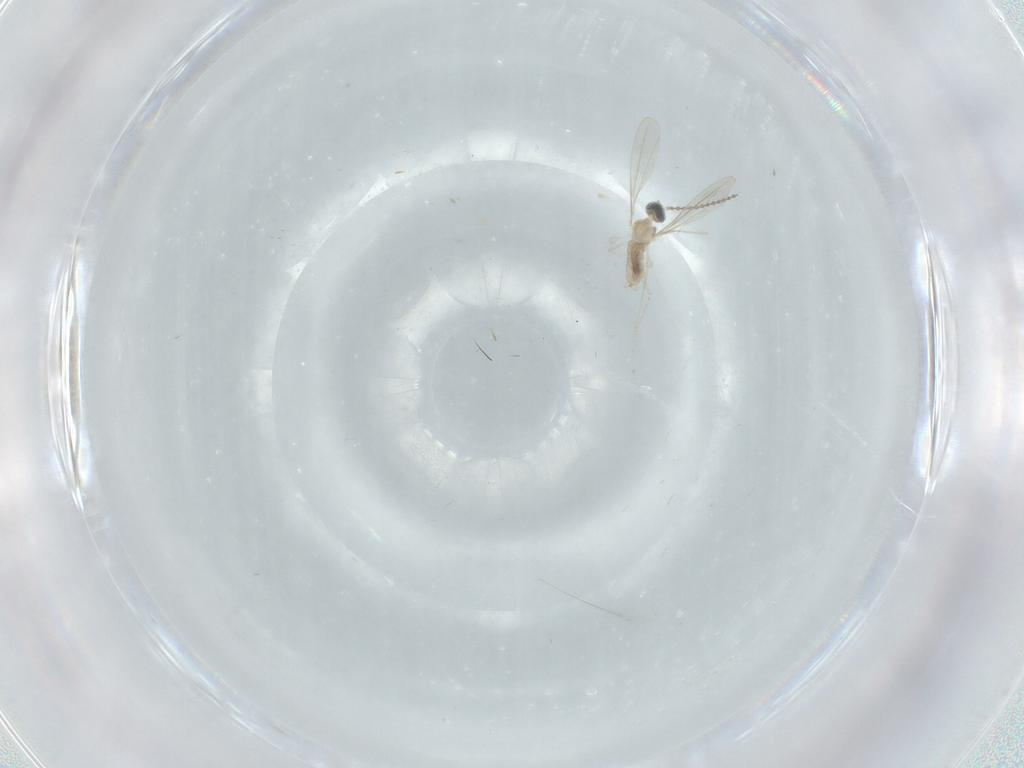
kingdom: Animalia
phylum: Arthropoda
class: Insecta
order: Diptera
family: Cecidomyiidae
